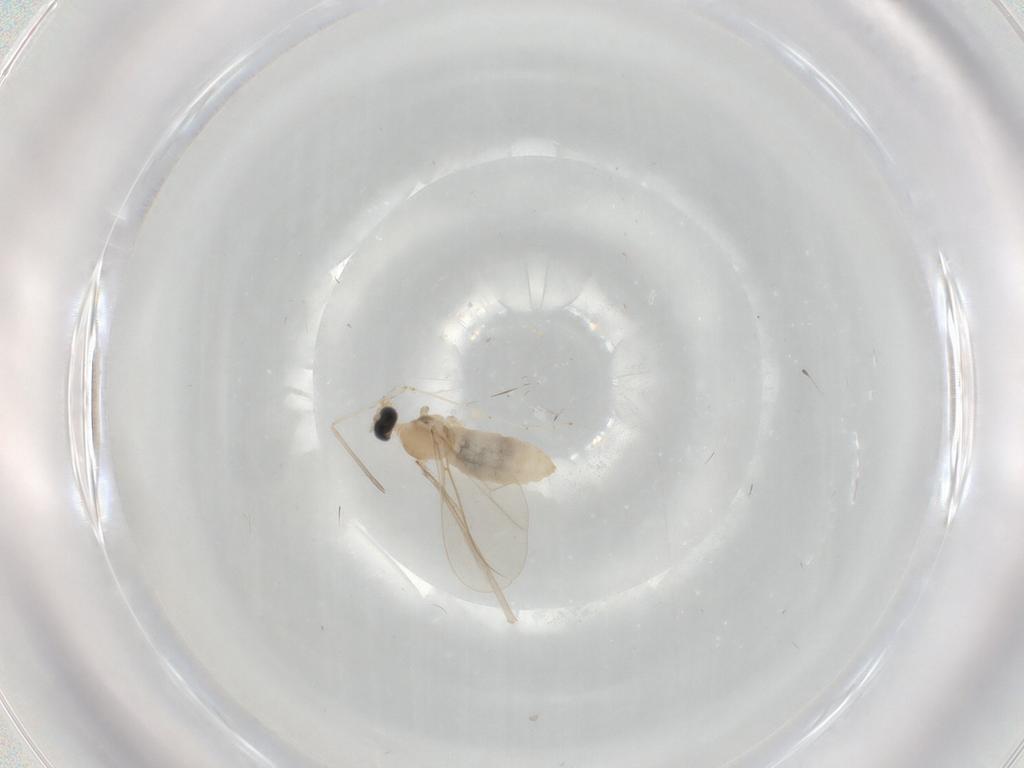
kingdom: Animalia
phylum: Arthropoda
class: Insecta
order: Diptera
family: Cecidomyiidae
